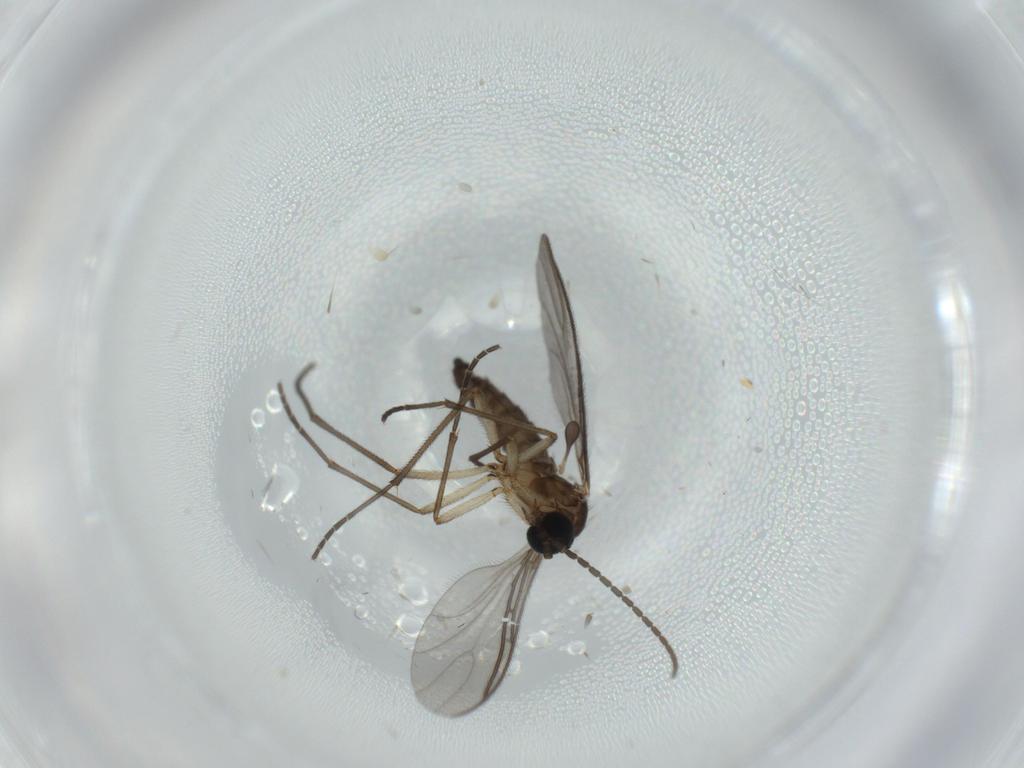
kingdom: Animalia
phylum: Arthropoda
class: Insecta
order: Diptera
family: Sciaridae
